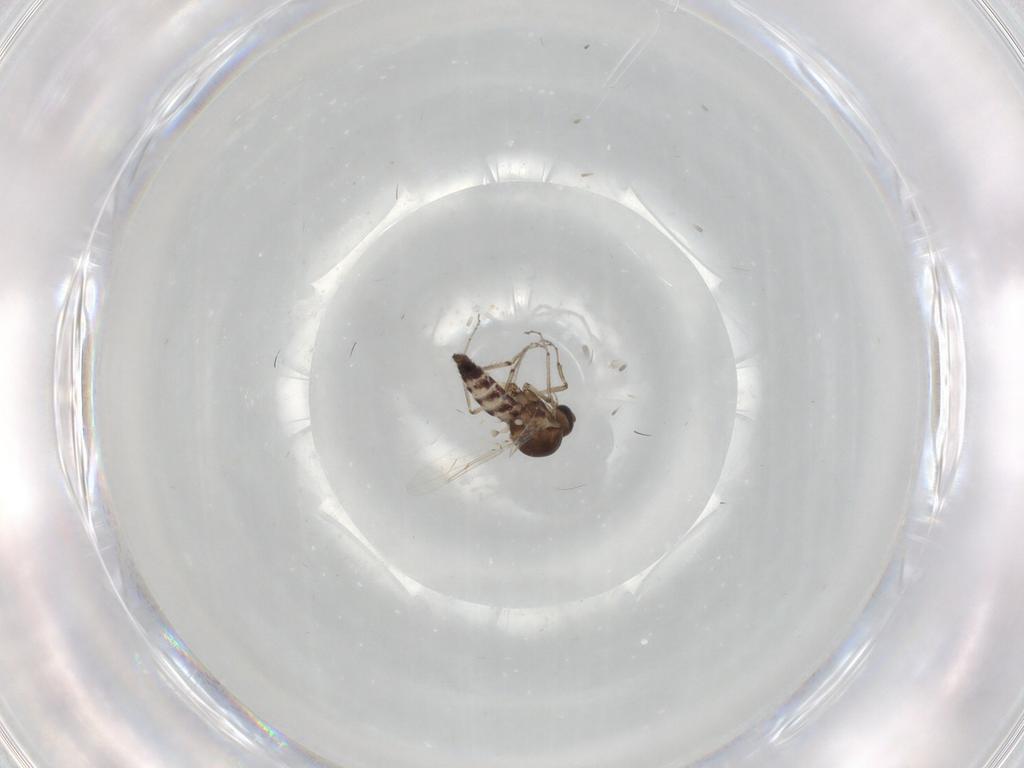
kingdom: Animalia
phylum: Arthropoda
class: Insecta
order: Diptera
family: Ceratopogonidae
